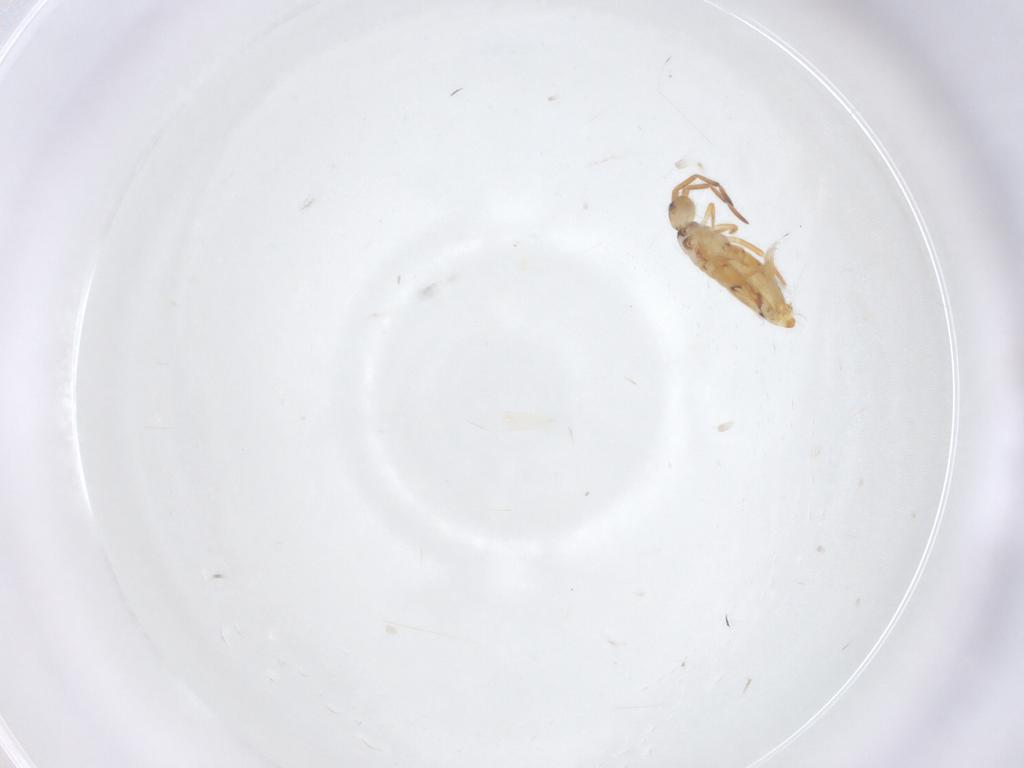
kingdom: Animalia
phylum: Arthropoda
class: Collembola
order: Entomobryomorpha
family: Entomobryidae
